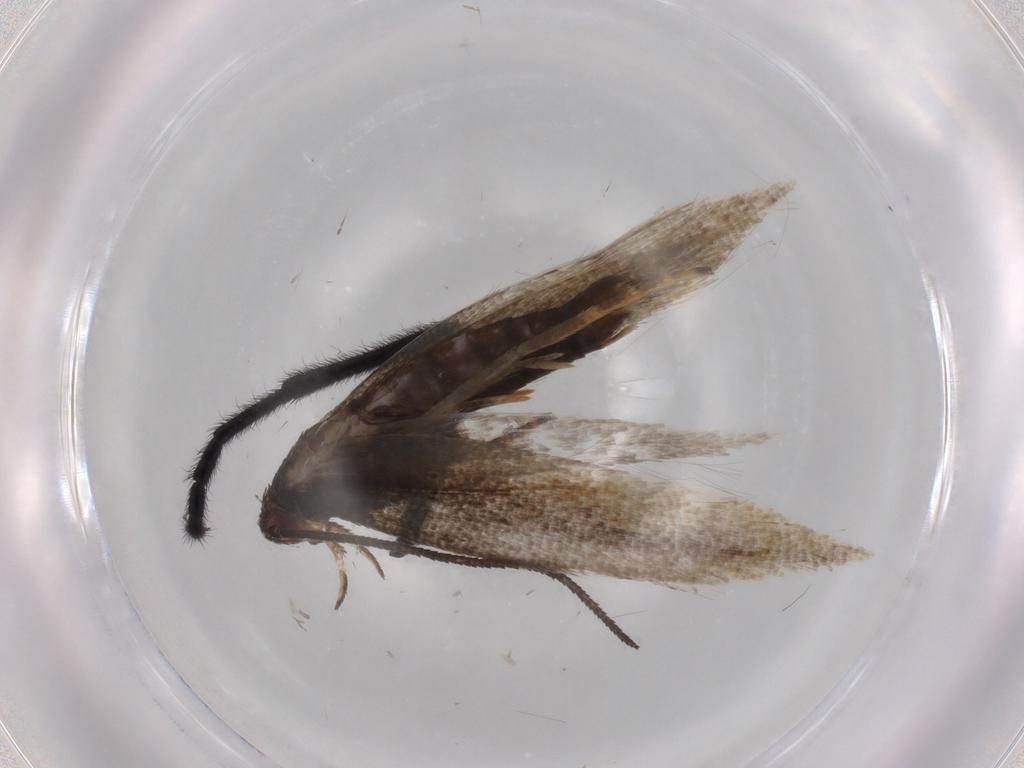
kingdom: Animalia
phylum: Arthropoda
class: Insecta
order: Lepidoptera
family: Momphidae
